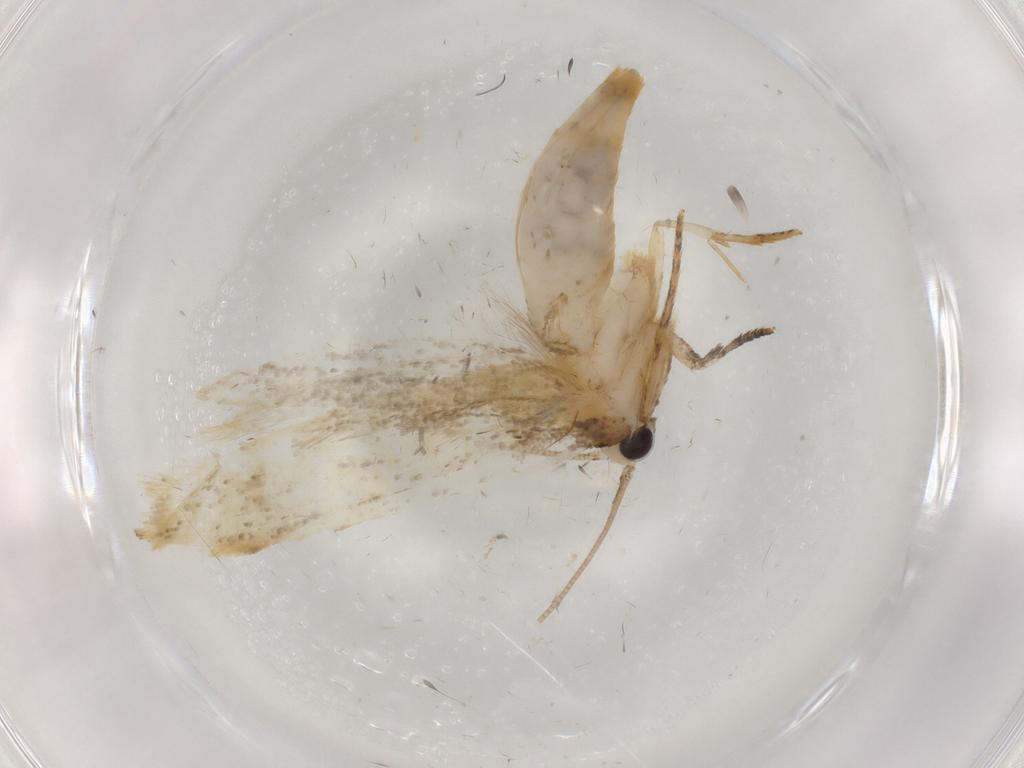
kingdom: Animalia
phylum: Arthropoda
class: Insecta
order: Lepidoptera
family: Tineidae
